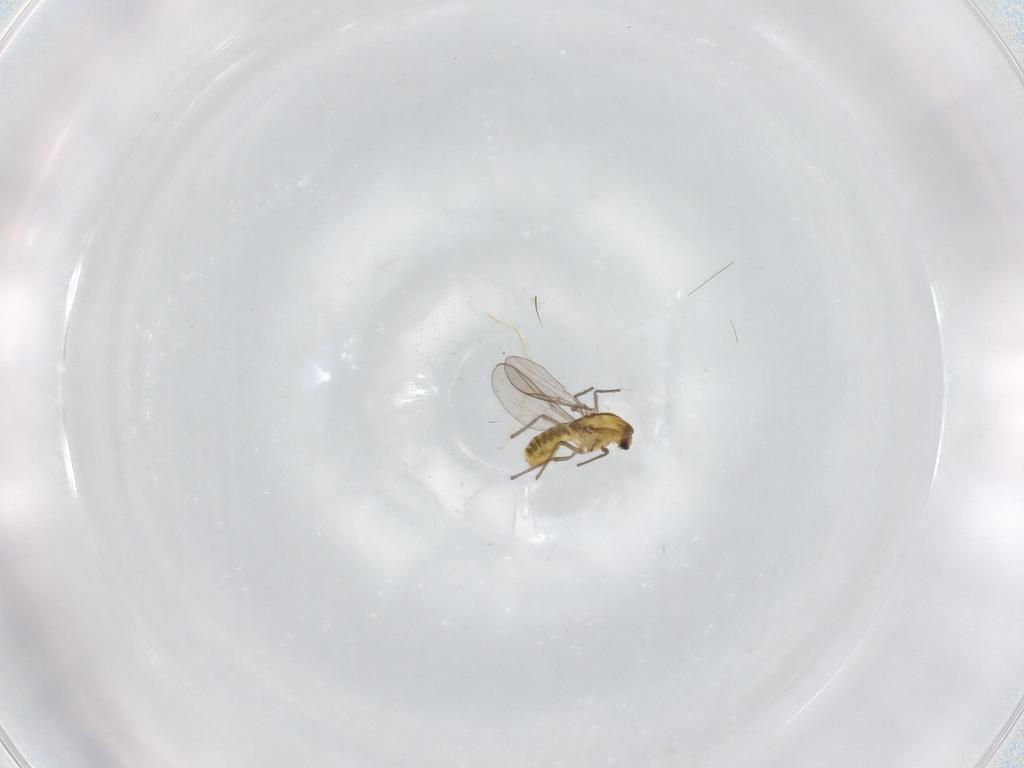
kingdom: Animalia
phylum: Arthropoda
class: Insecta
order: Diptera
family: Chironomidae
